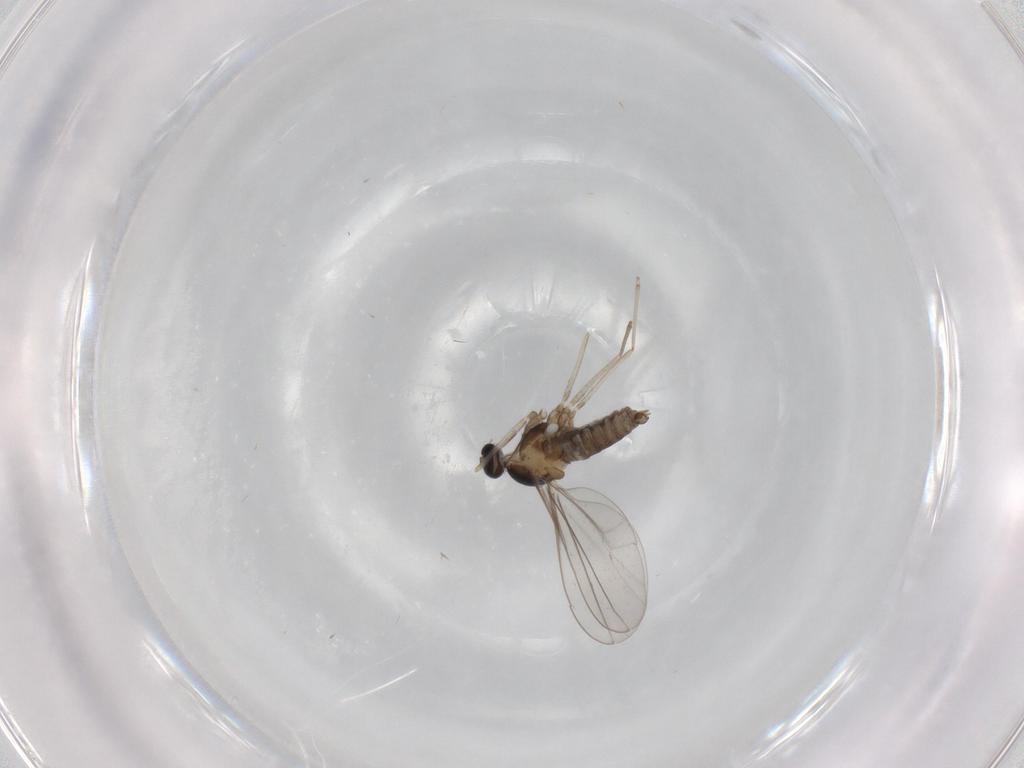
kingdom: Animalia
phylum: Arthropoda
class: Insecta
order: Diptera
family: Cecidomyiidae
